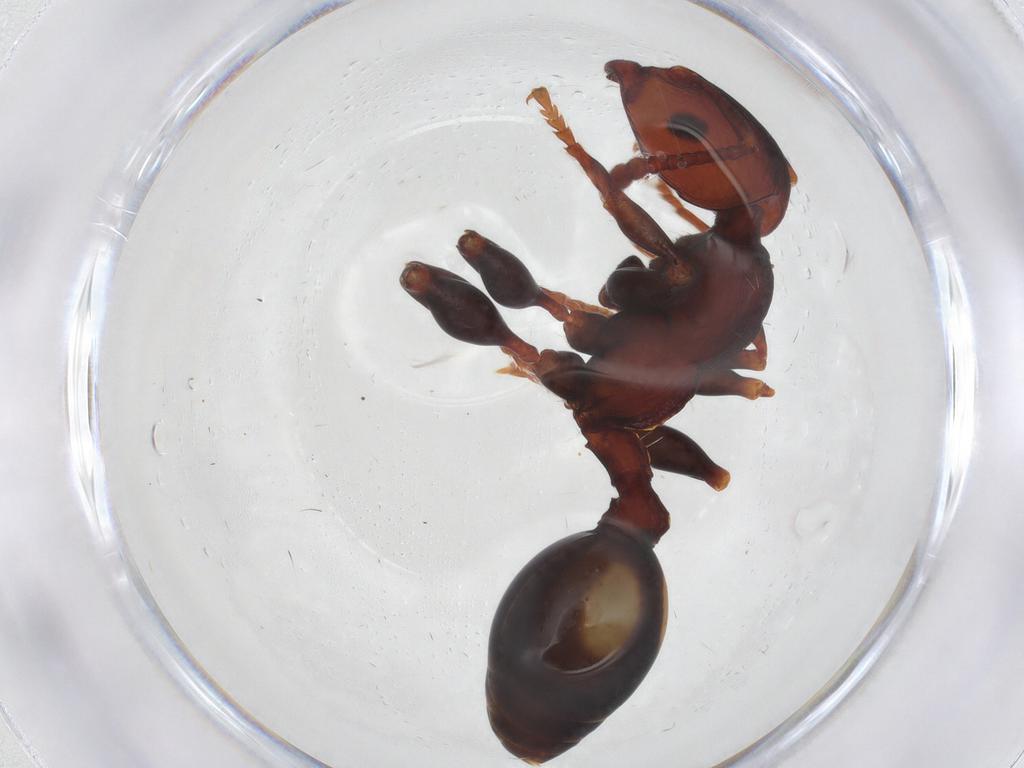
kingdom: Animalia
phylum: Arthropoda
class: Insecta
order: Hymenoptera
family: Formicidae
